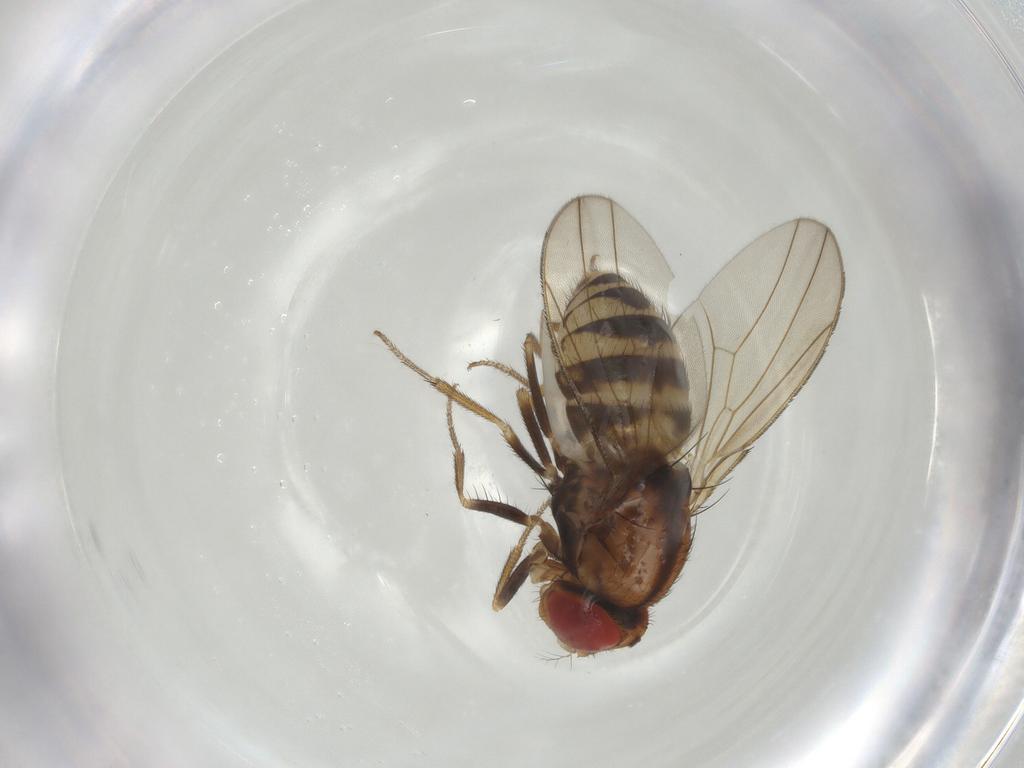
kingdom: Animalia
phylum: Arthropoda
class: Insecta
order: Diptera
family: Drosophilidae
